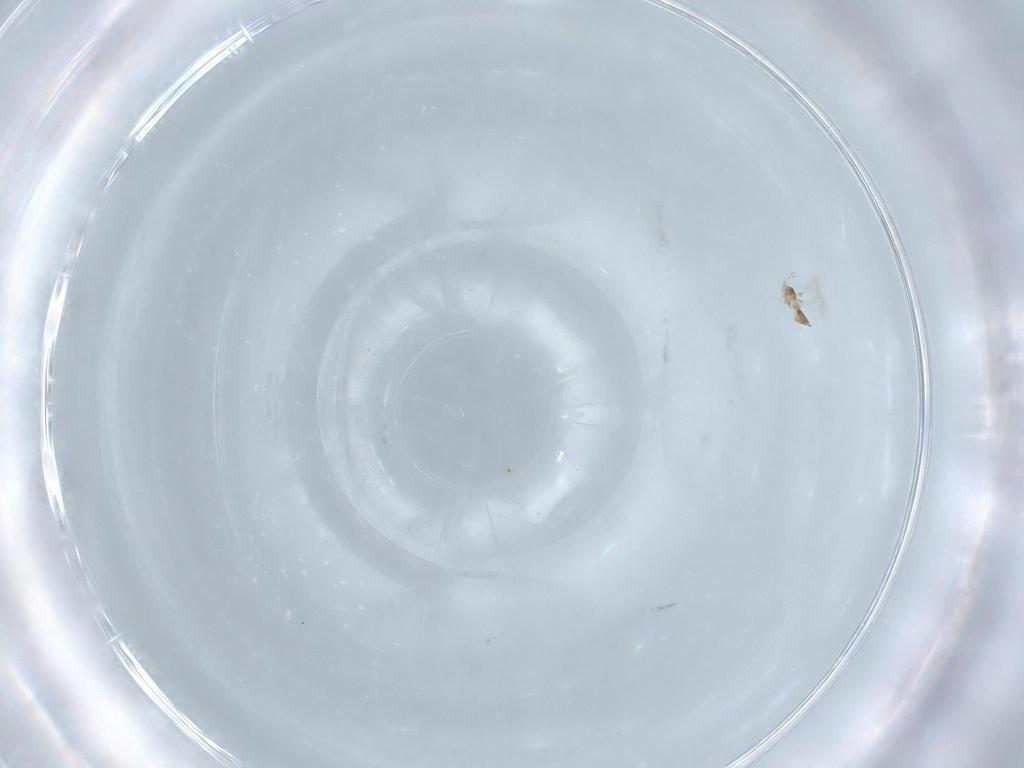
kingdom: Animalia
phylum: Arthropoda
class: Insecta
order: Hymenoptera
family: Mymaridae
